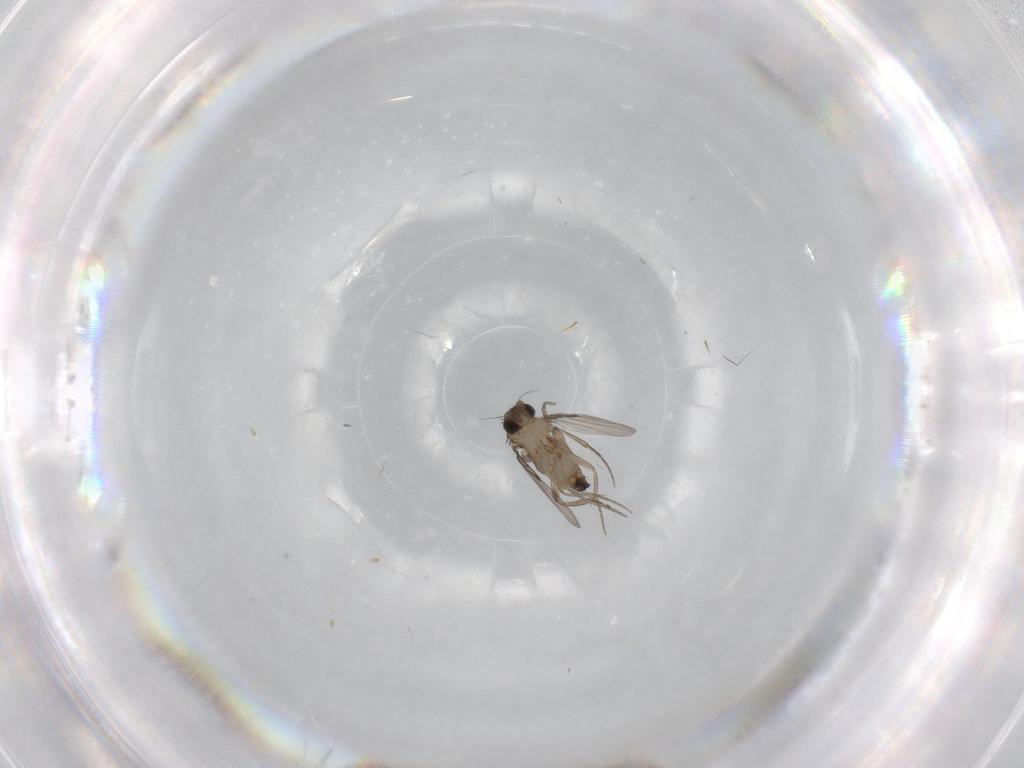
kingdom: Animalia
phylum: Arthropoda
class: Insecta
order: Diptera
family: Phoridae
